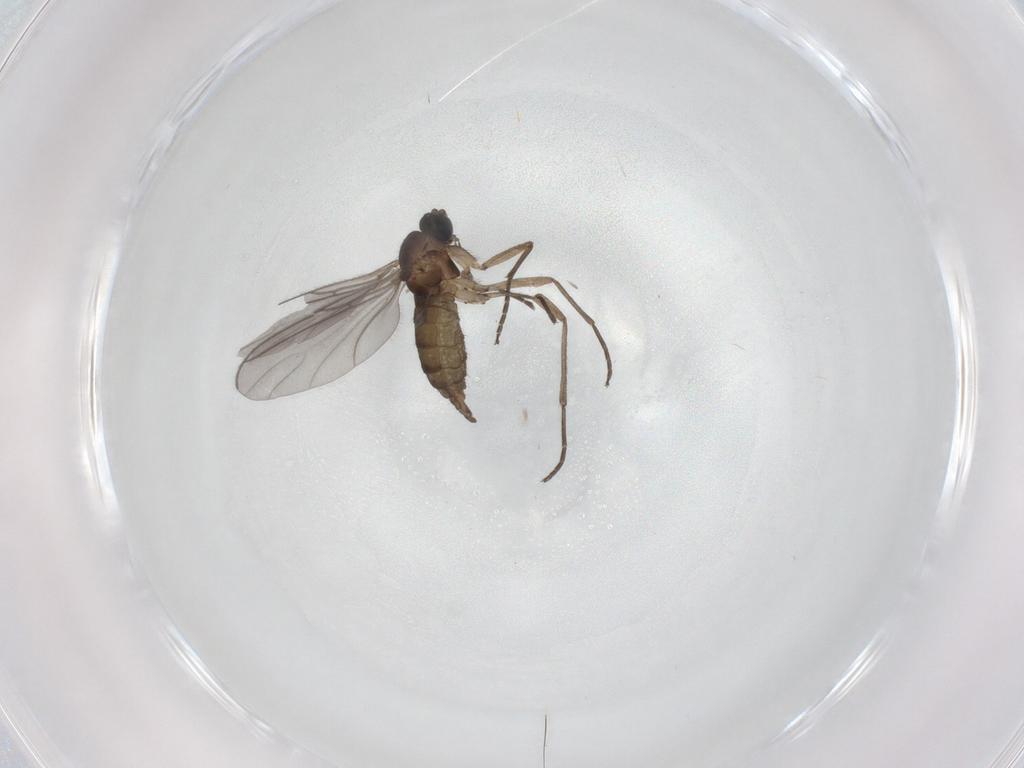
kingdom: Animalia
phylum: Arthropoda
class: Insecta
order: Diptera
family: Sciaridae
